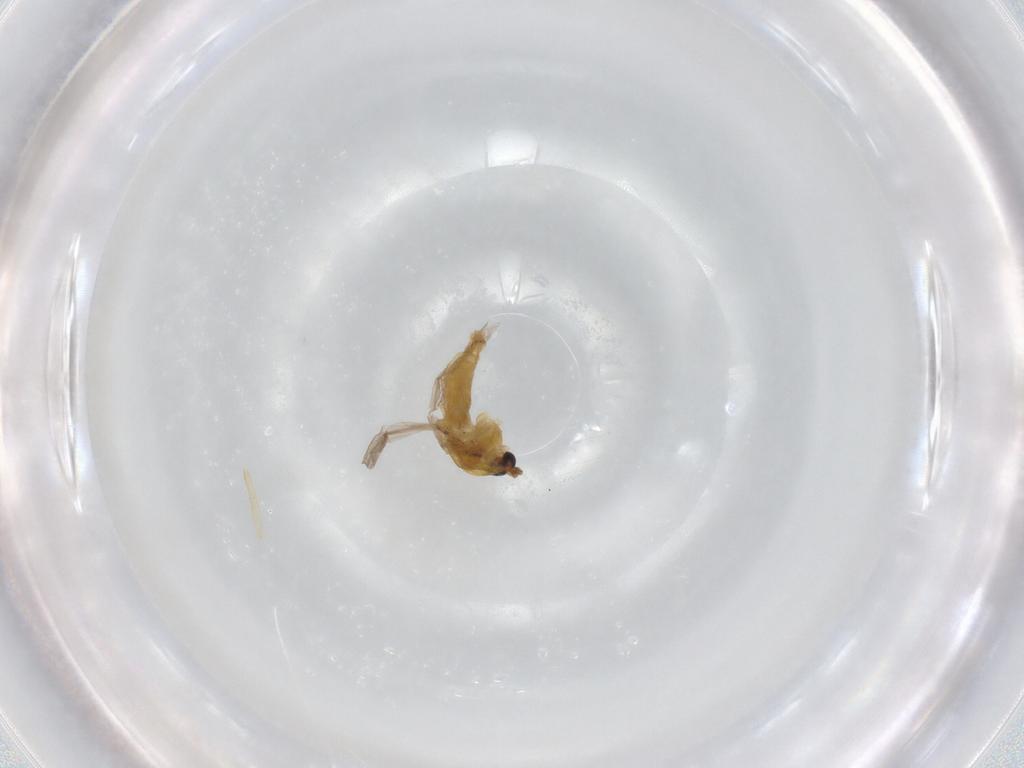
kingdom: Animalia
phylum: Arthropoda
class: Insecta
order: Diptera
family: Chironomidae
